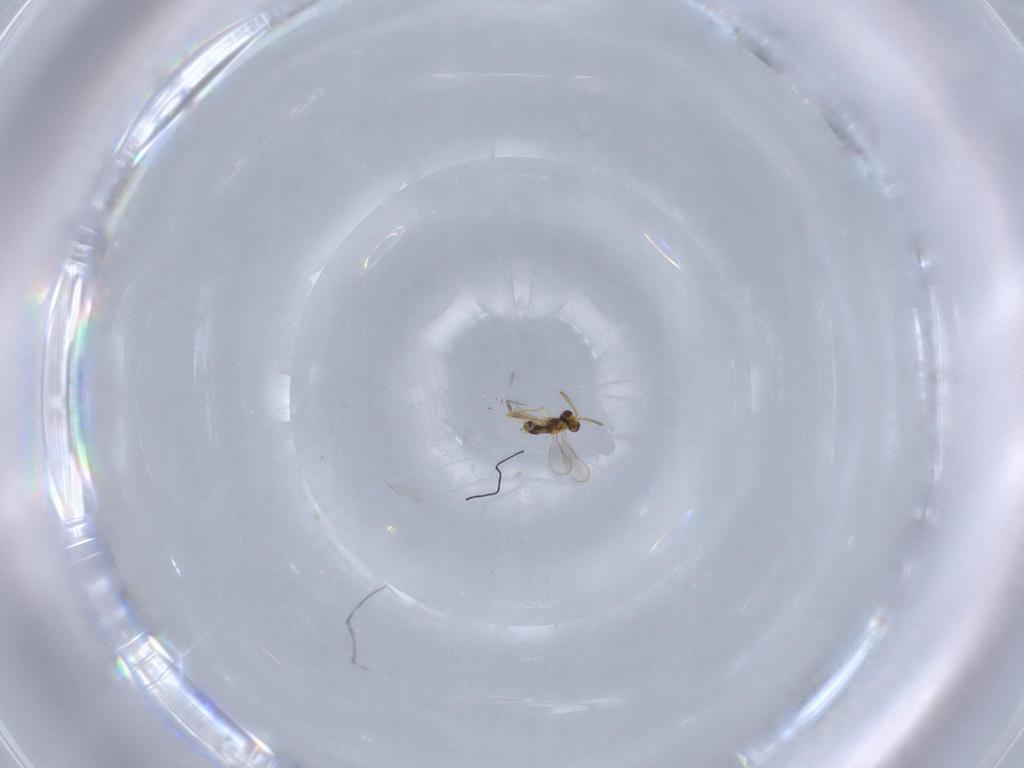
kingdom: Animalia
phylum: Arthropoda
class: Insecta
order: Hymenoptera
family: Aphelinidae
